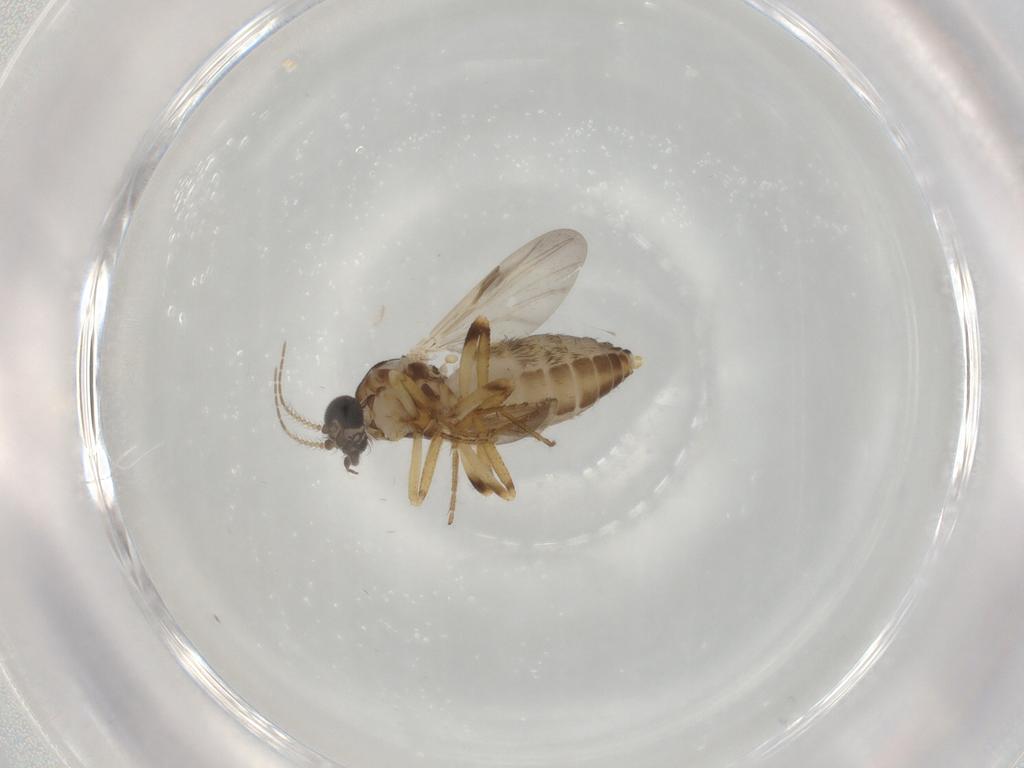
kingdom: Animalia
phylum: Arthropoda
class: Insecta
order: Diptera
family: Ceratopogonidae
